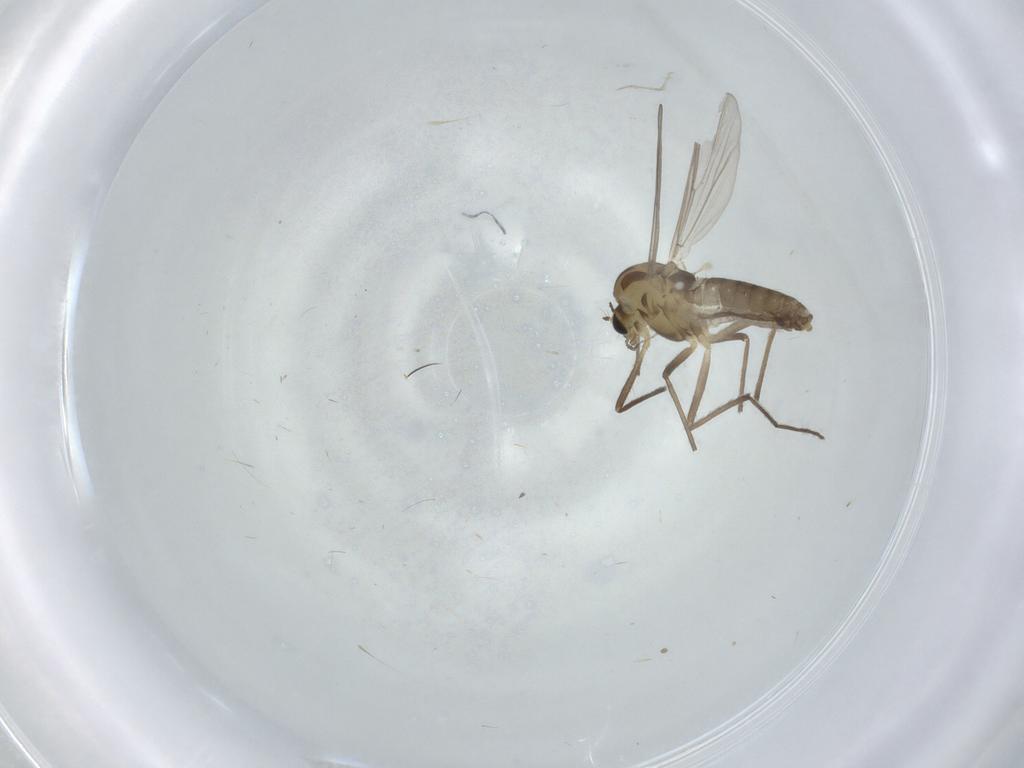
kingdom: Animalia
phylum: Arthropoda
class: Insecta
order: Diptera
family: Chironomidae
